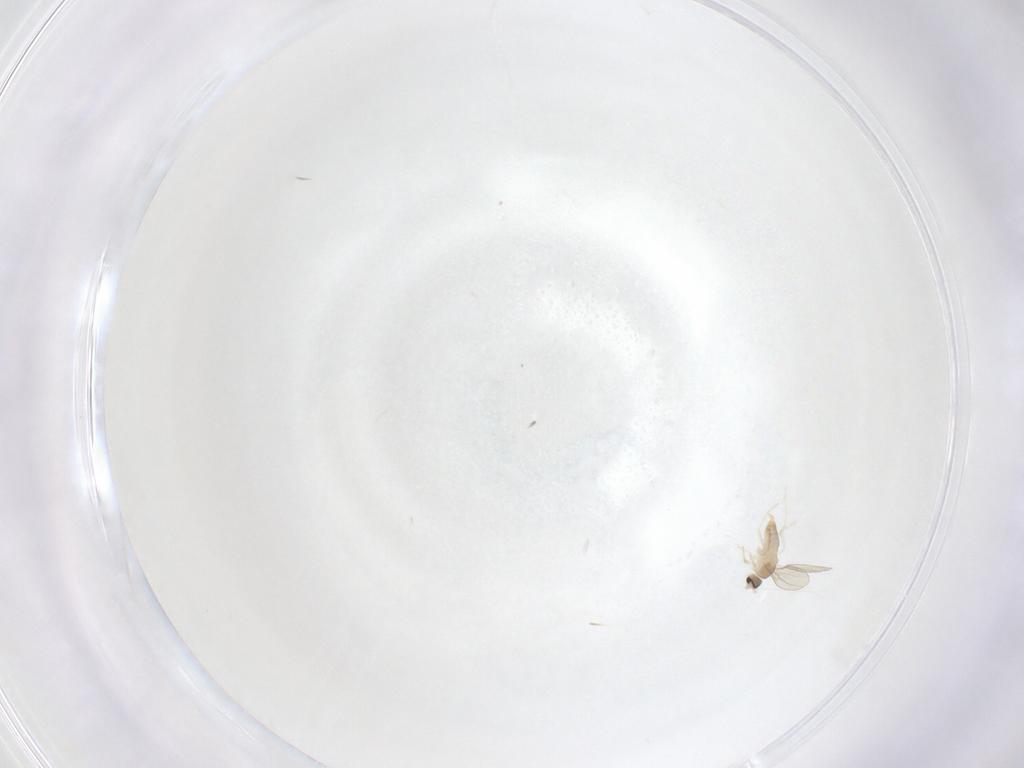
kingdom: Animalia
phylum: Arthropoda
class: Insecta
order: Diptera
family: Cecidomyiidae
